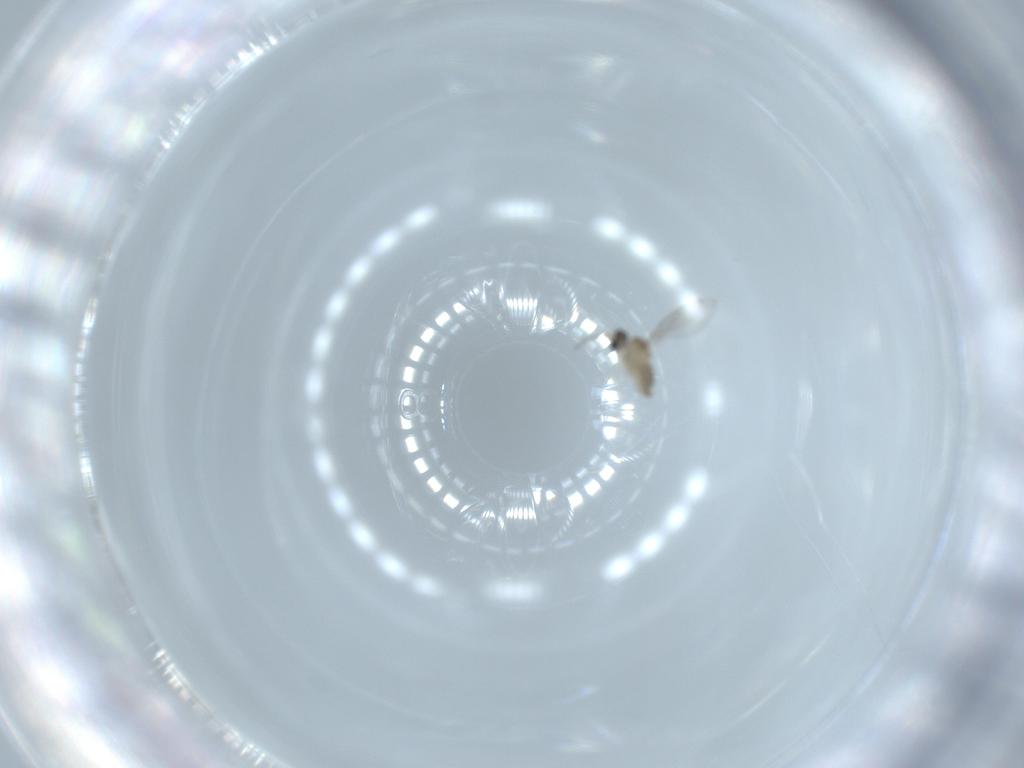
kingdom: Animalia
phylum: Arthropoda
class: Insecta
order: Diptera
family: Cecidomyiidae
